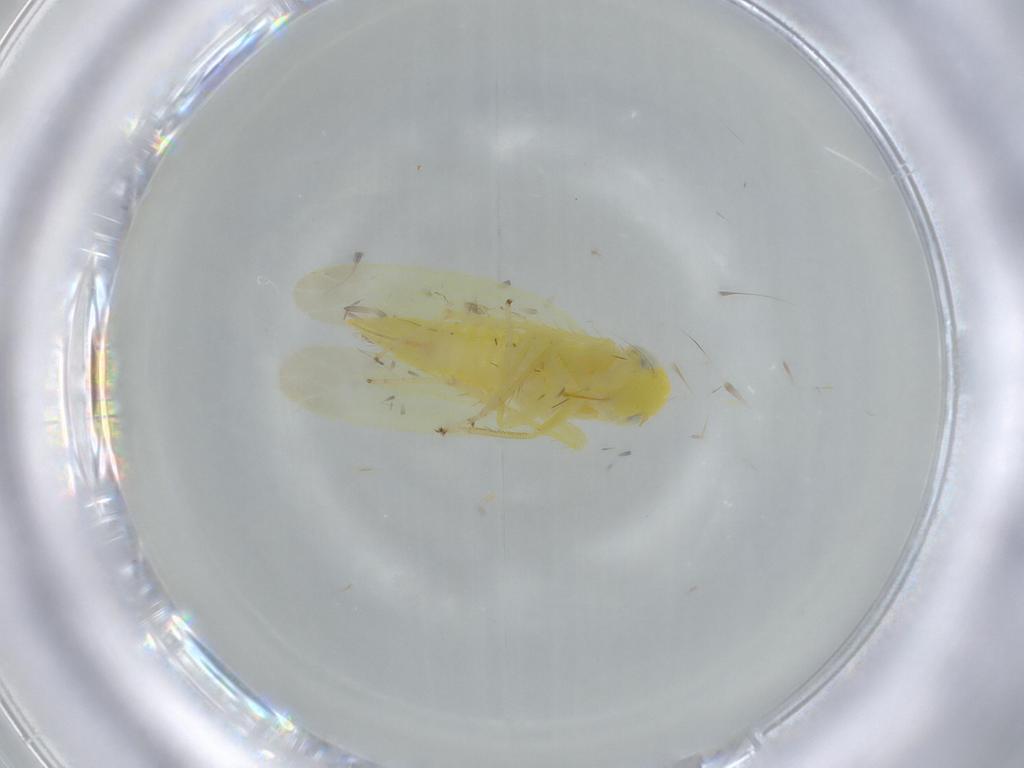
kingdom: Animalia
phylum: Arthropoda
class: Insecta
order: Hemiptera
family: Aleyrodidae
